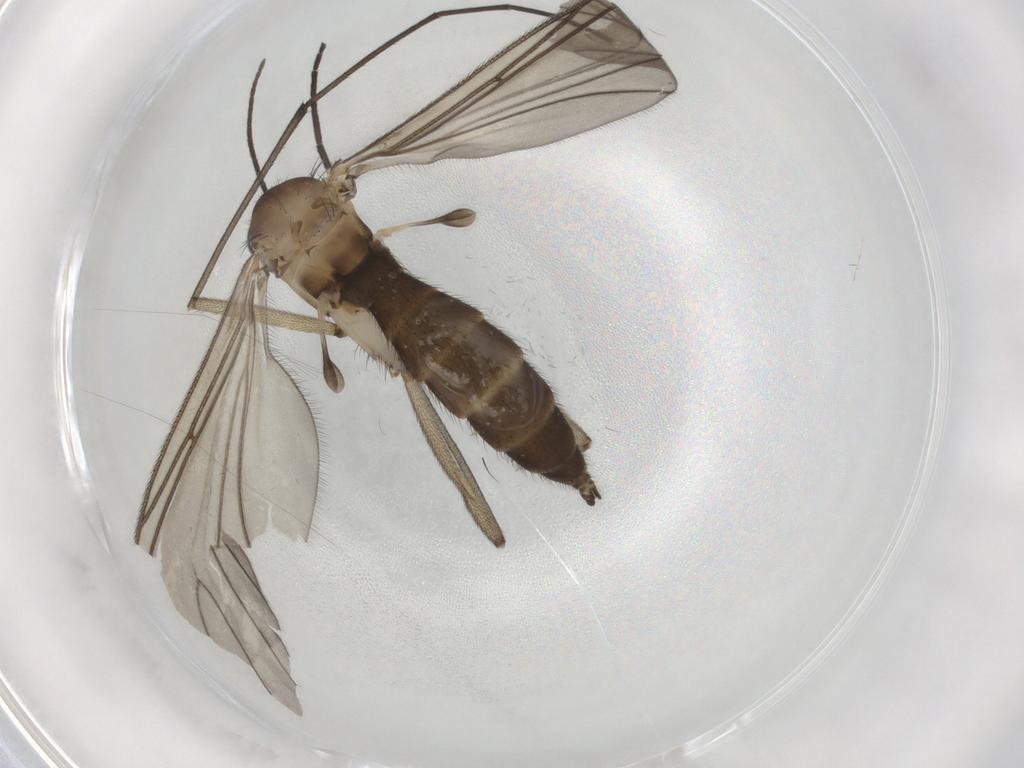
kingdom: Animalia
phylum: Arthropoda
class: Insecta
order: Diptera
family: Sciaridae
